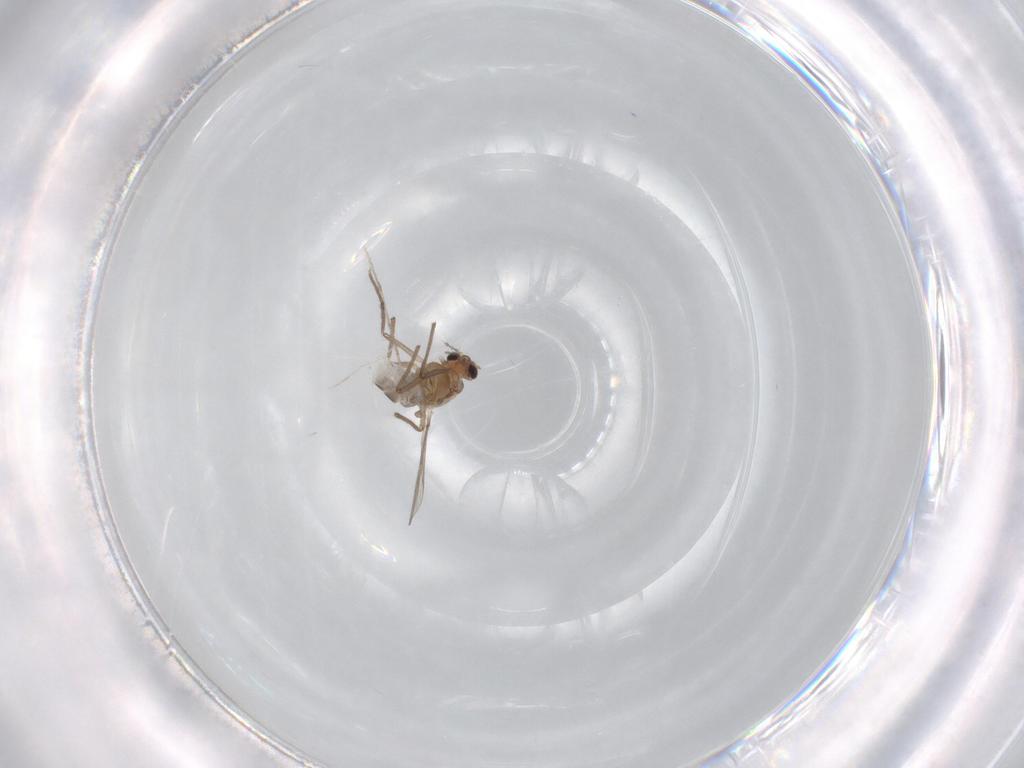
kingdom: Animalia
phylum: Arthropoda
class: Insecta
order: Diptera
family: Chironomidae
